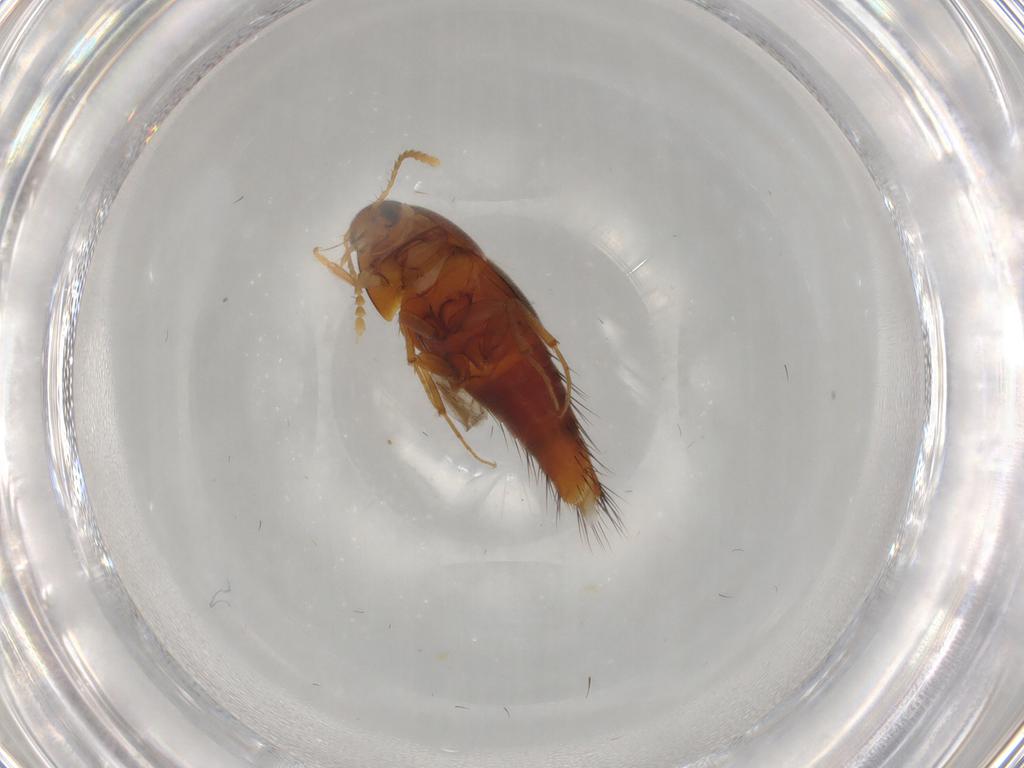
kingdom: Animalia
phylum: Arthropoda
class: Insecta
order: Coleoptera
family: Staphylinidae
